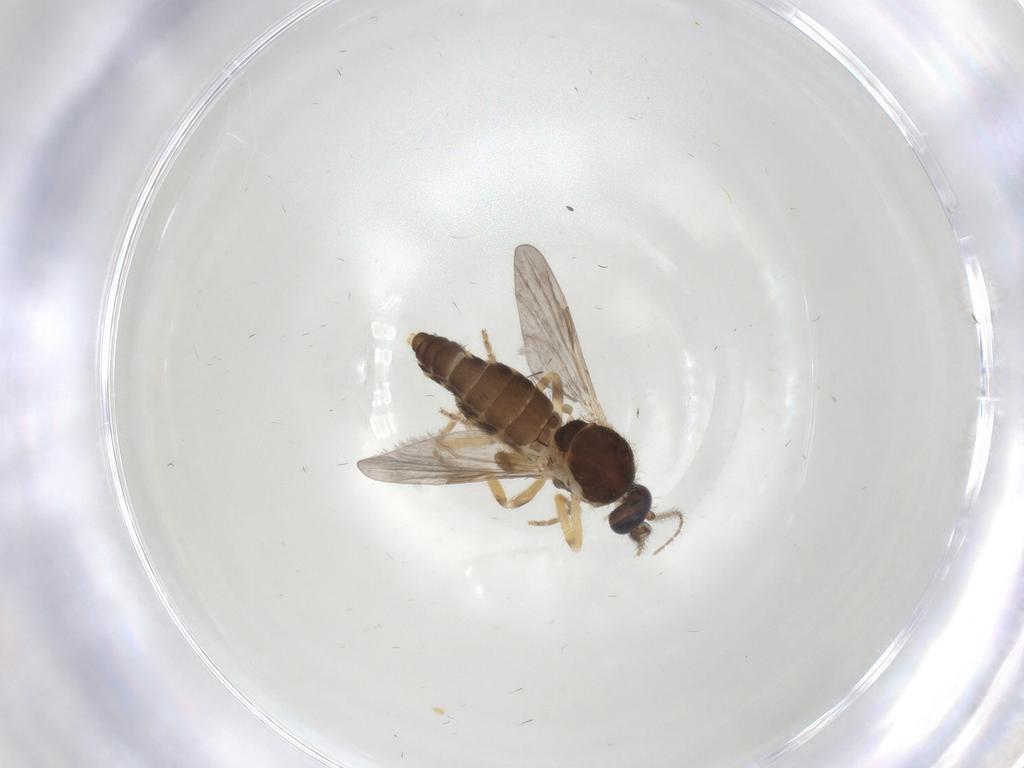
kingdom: Animalia
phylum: Arthropoda
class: Insecta
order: Diptera
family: Ceratopogonidae
